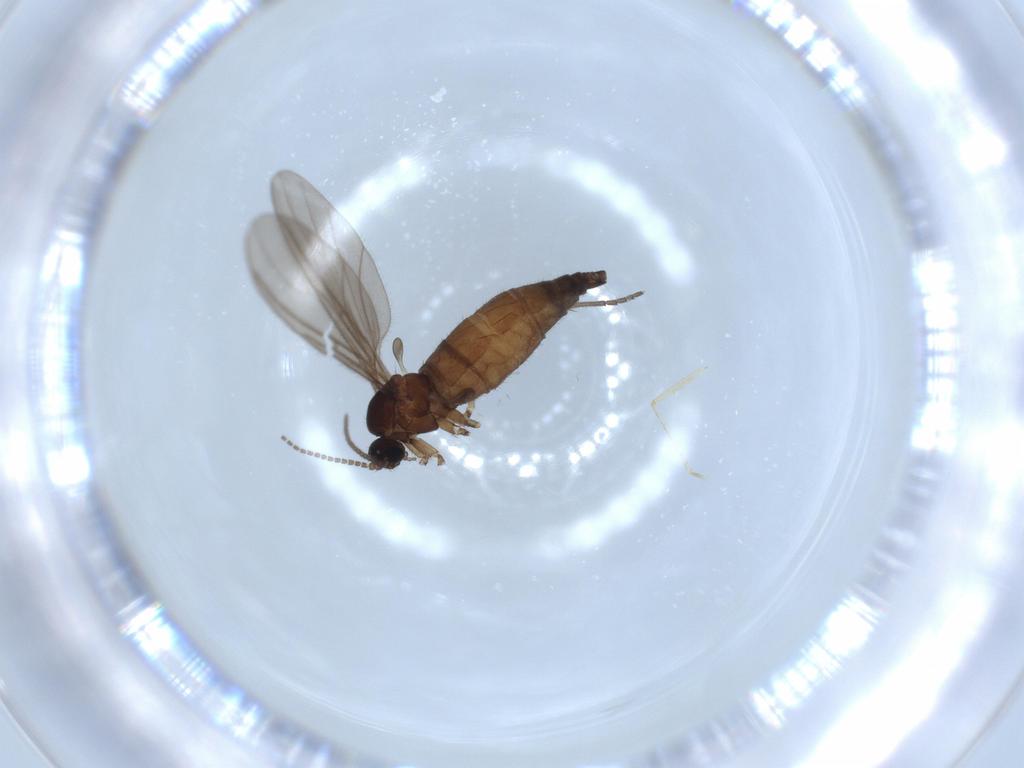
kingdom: Animalia
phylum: Arthropoda
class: Insecta
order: Diptera
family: Sciaridae
